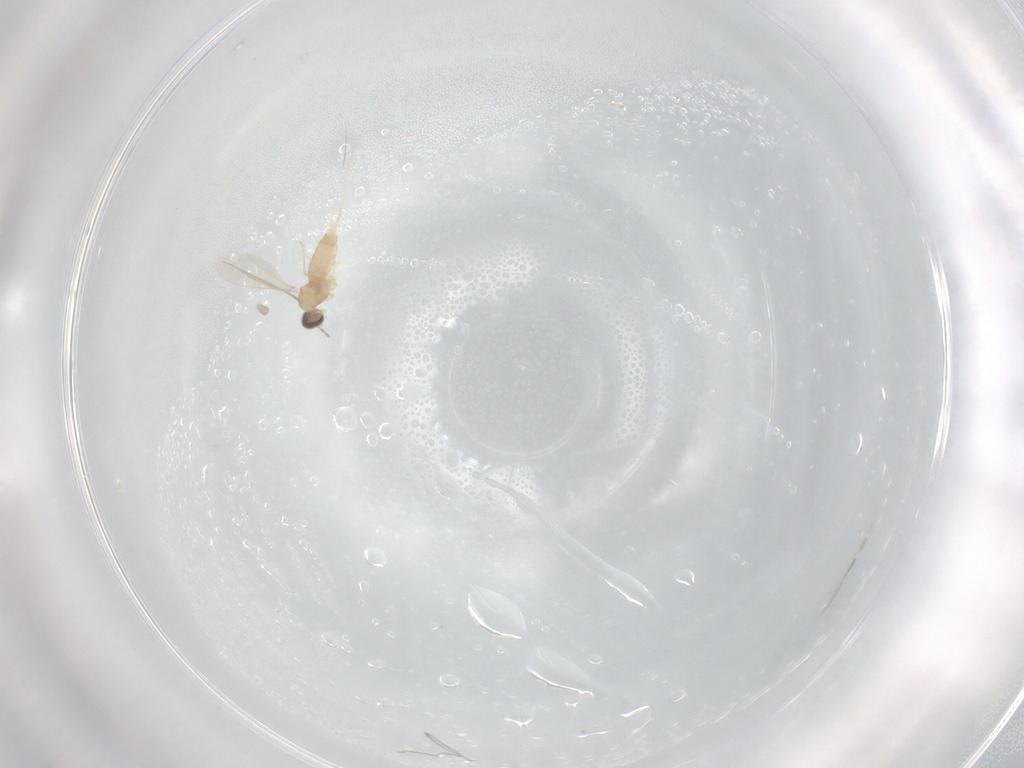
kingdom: Animalia
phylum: Arthropoda
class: Insecta
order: Diptera
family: Cecidomyiidae
